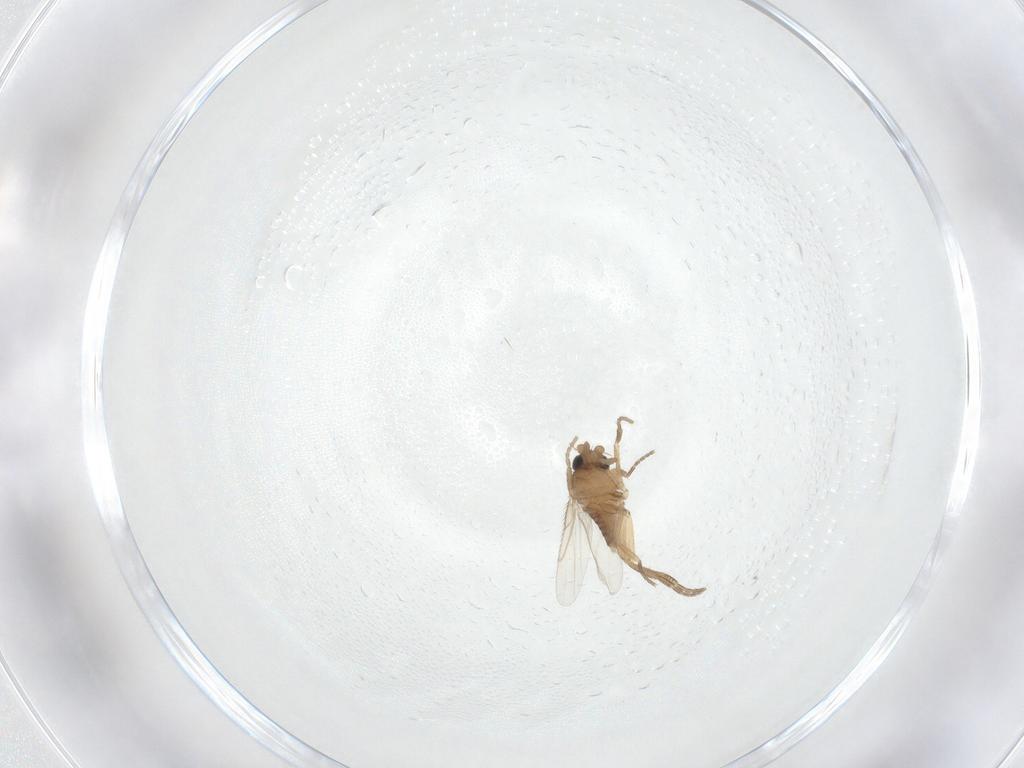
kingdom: Animalia
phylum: Arthropoda
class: Insecta
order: Diptera
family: Phoridae
